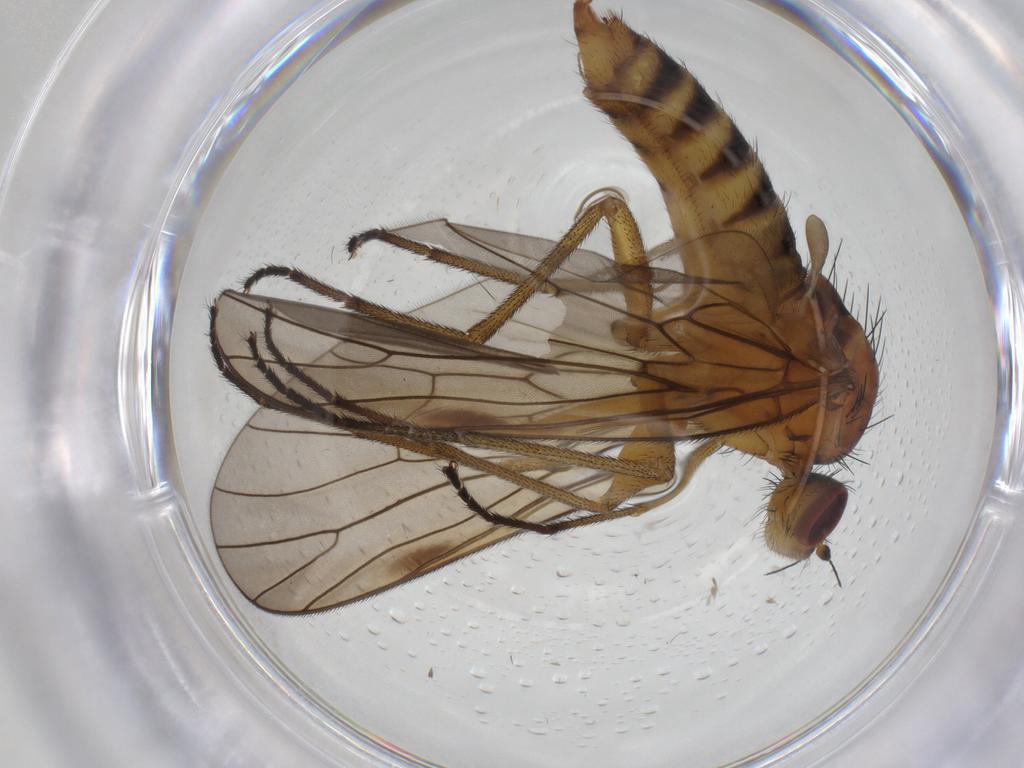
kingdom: Animalia
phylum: Arthropoda
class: Insecta
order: Diptera
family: Brachystomatidae
